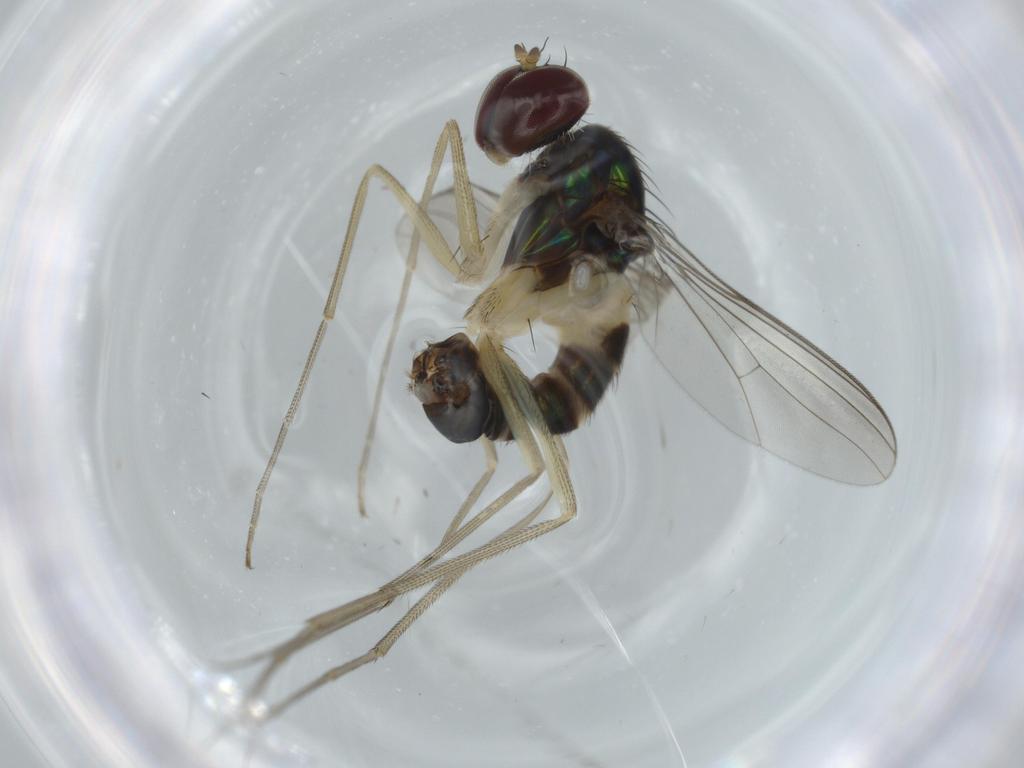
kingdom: Animalia
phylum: Arthropoda
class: Insecta
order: Diptera
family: Dolichopodidae
